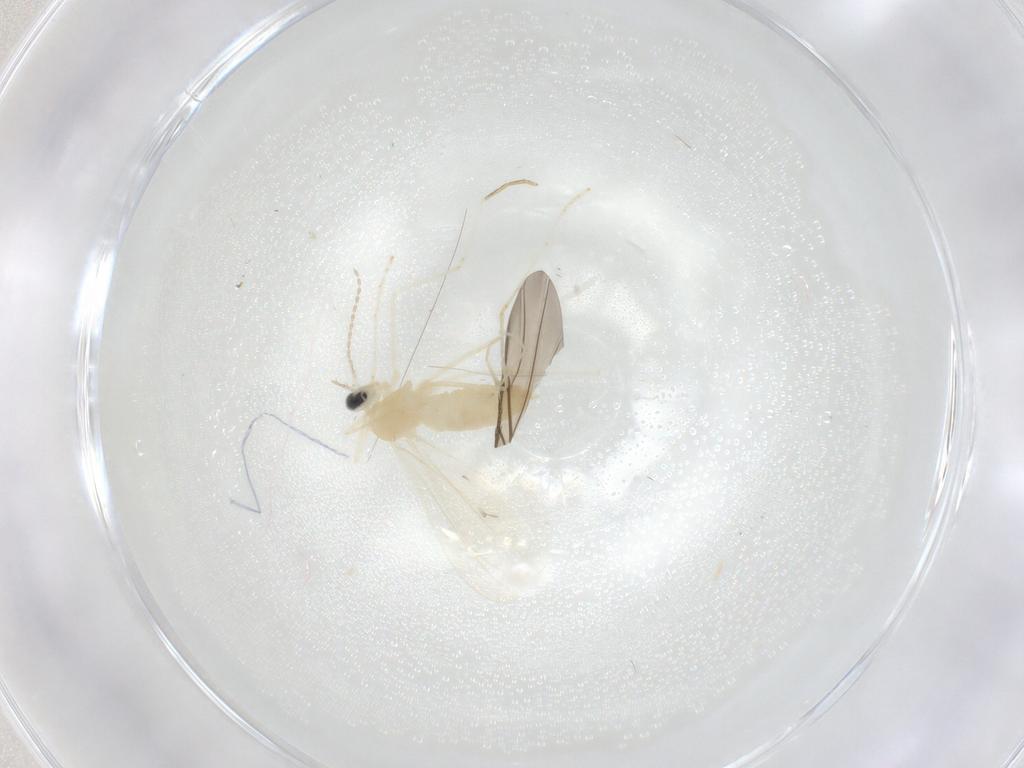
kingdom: Animalia
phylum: Arthropoda
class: Insecta
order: Diptera
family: Cecidomyiidae
